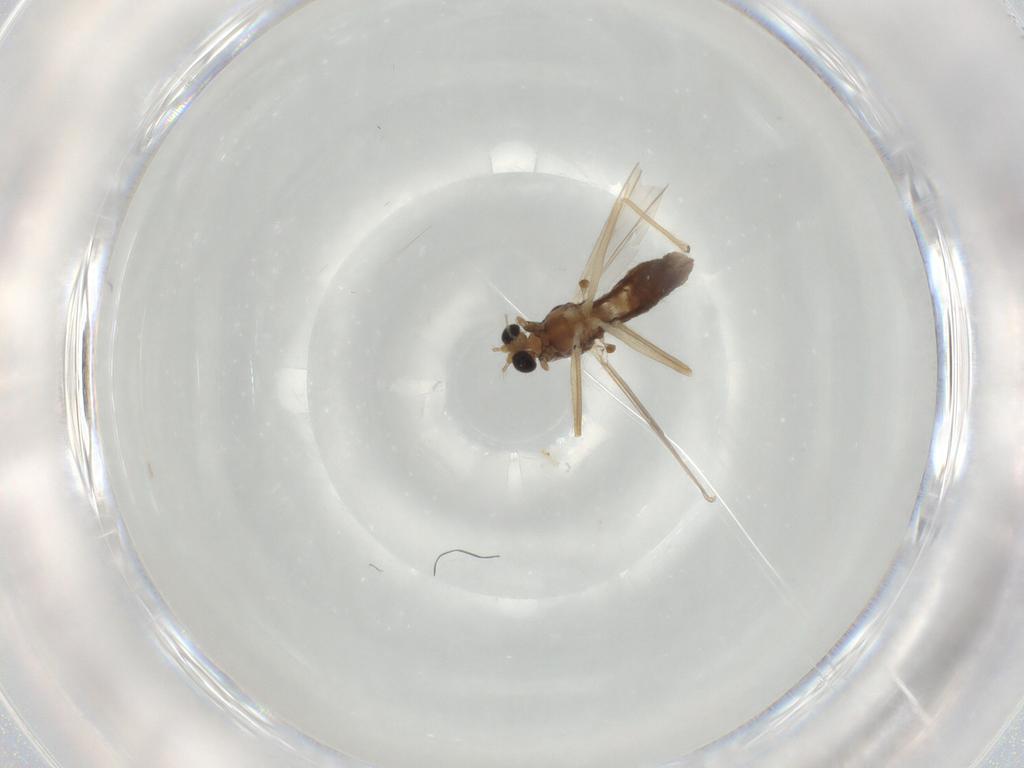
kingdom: Animalia
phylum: Arthropoda
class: Insecta
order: Diptera
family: Chironomidae
